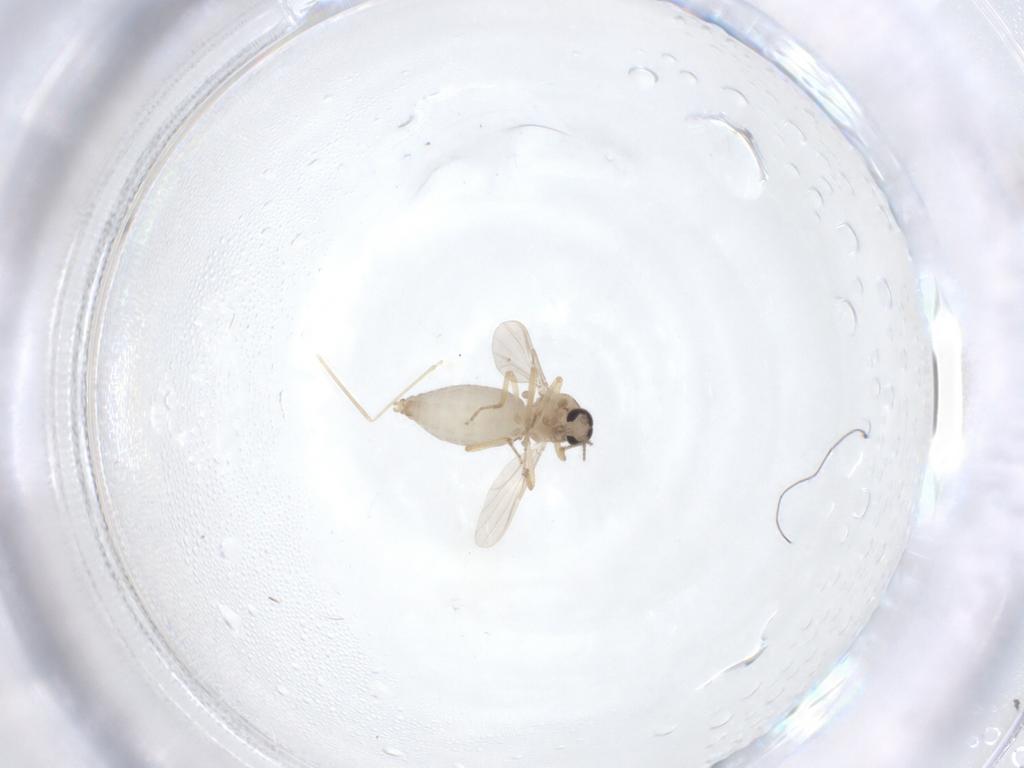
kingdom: Animalia
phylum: Arthropoda
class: Insecta
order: Diptera
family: Ceratopogonidae
